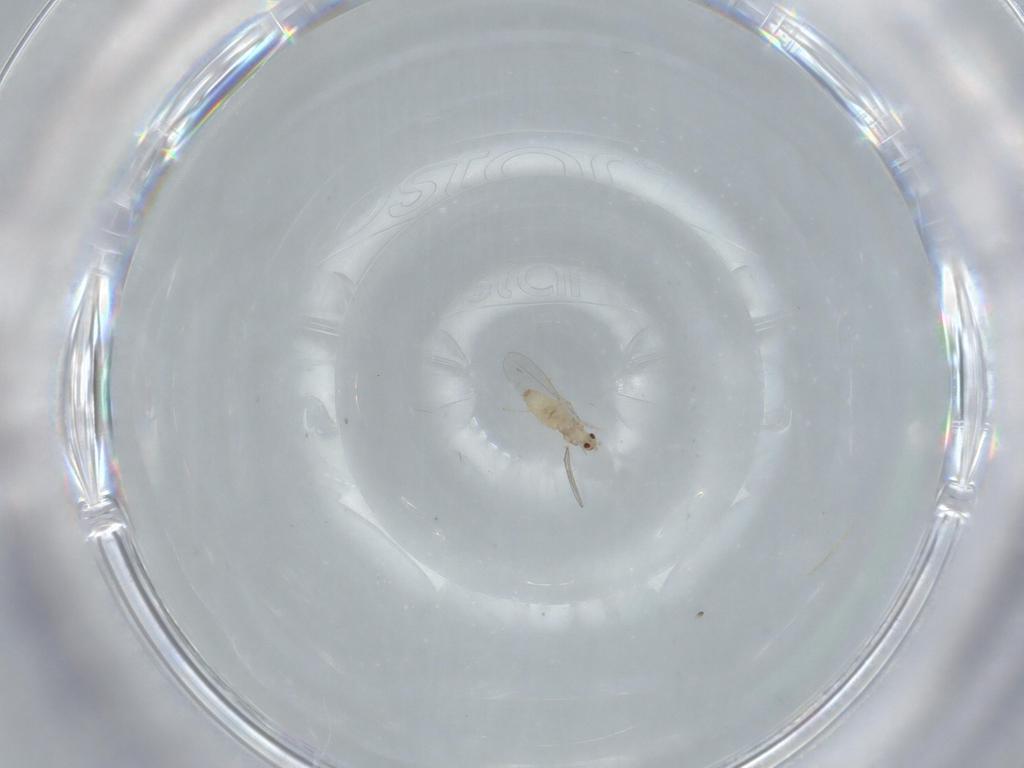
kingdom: Animalia
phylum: Arthropoda
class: Insecta
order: Diptera
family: Cecidomyiidae
